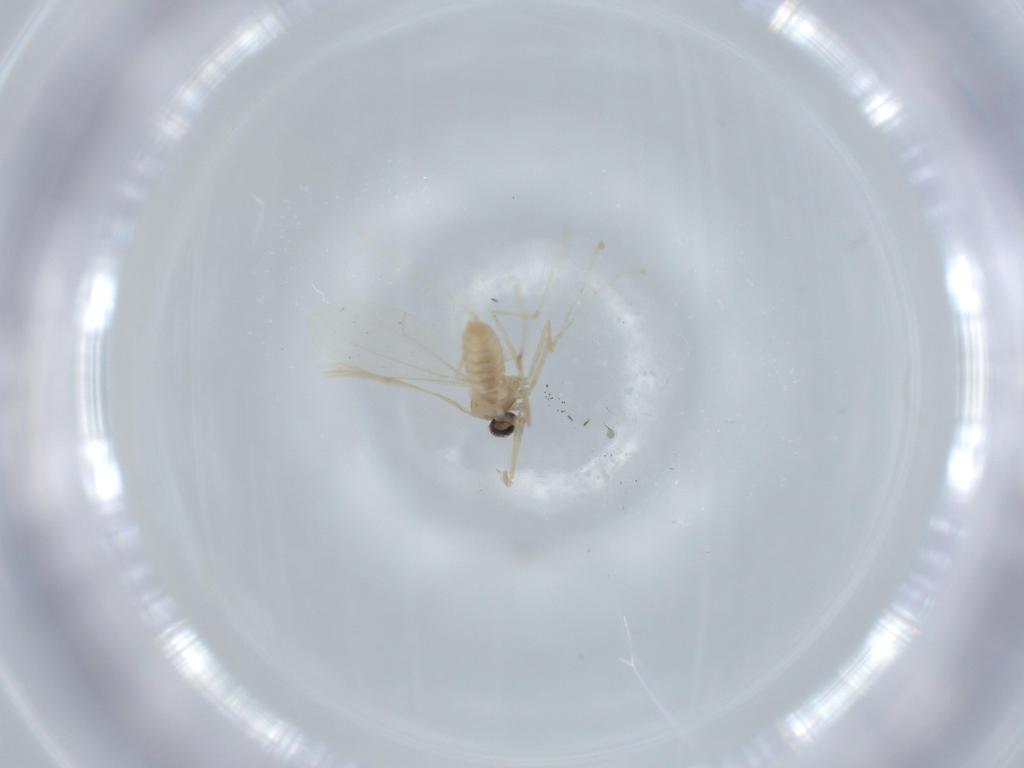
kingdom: Animalia
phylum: Arthropoda
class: Insecta
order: Diptera
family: Cecidomyiidae
